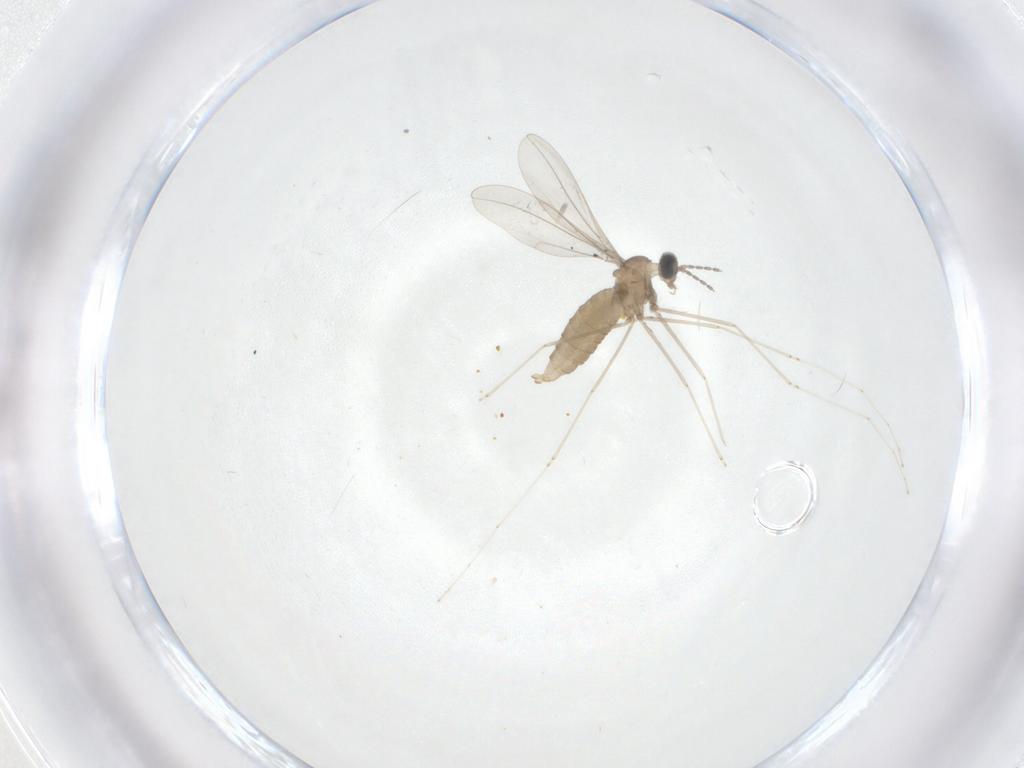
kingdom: Animalia
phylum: Arthropoda
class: Insecta
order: Diptera
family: Cecidomyiidae
